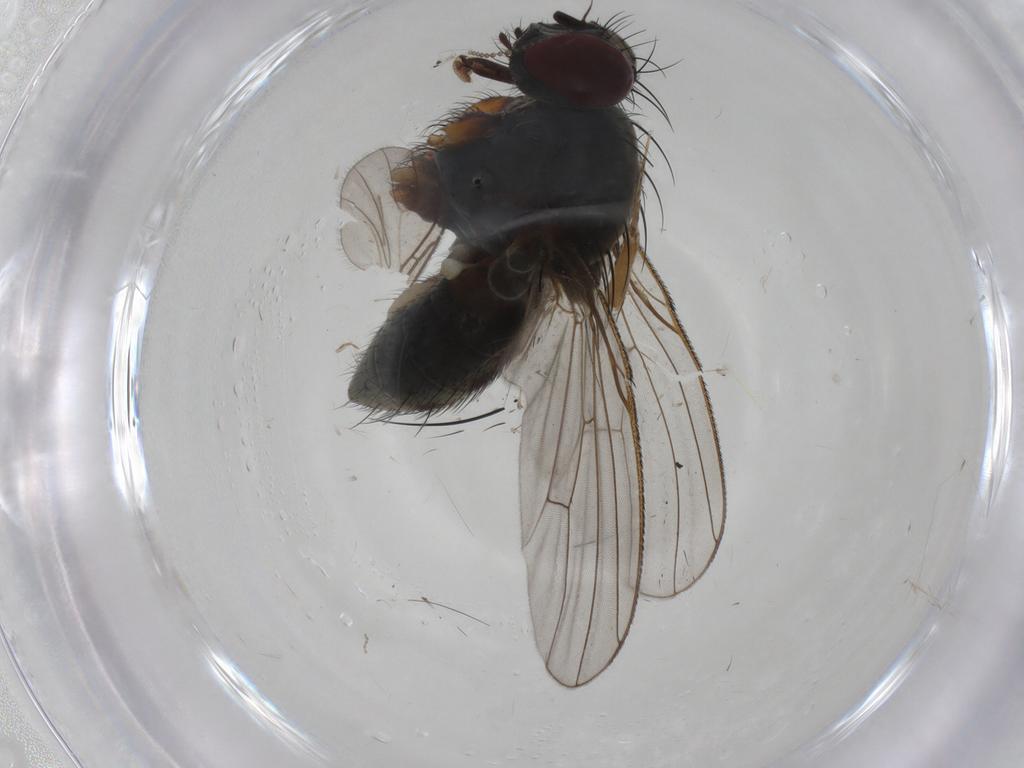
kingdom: Animalia
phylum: Arthropoda
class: Insecta
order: Diptera
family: Muscidae
